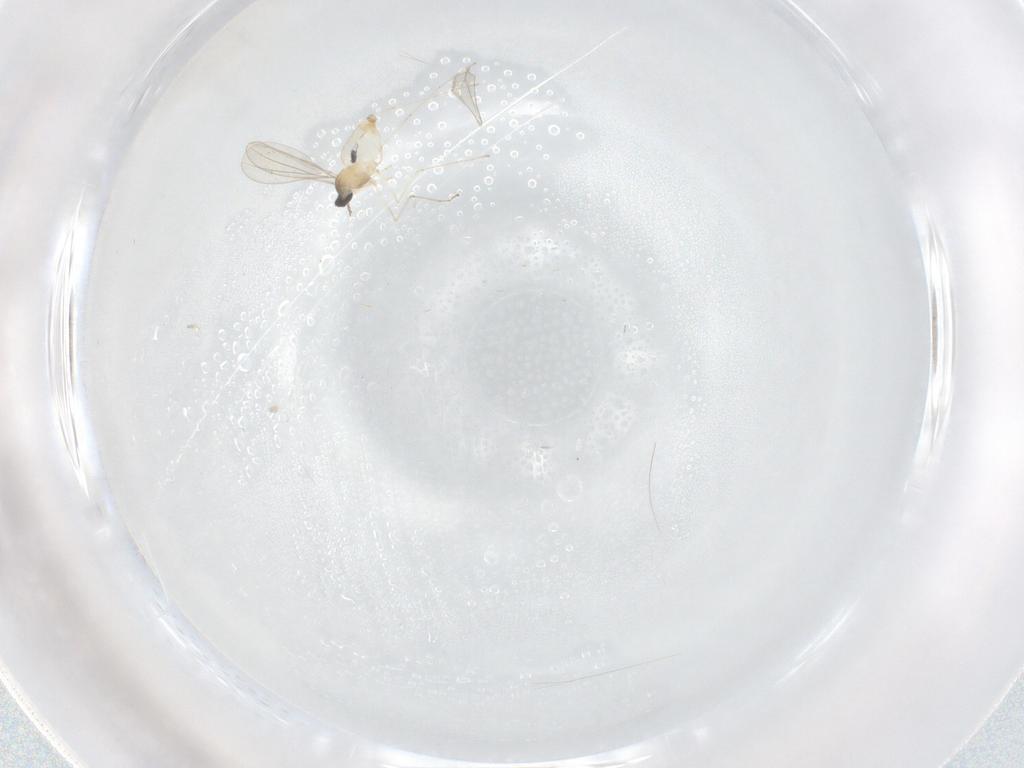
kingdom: Animalia
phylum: Arthropoda
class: Insecta
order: Diptera
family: Cecidomyiidae
